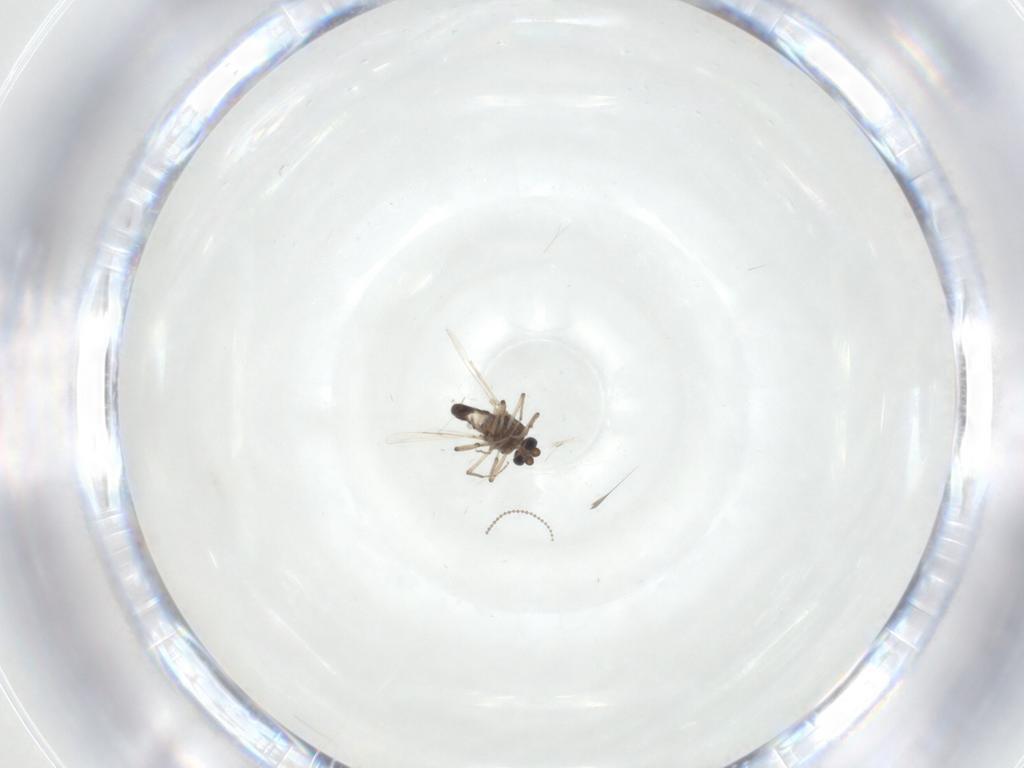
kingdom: Animalia
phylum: Arthropoda
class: Insecta
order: Diptera
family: Ceratopogonidae
